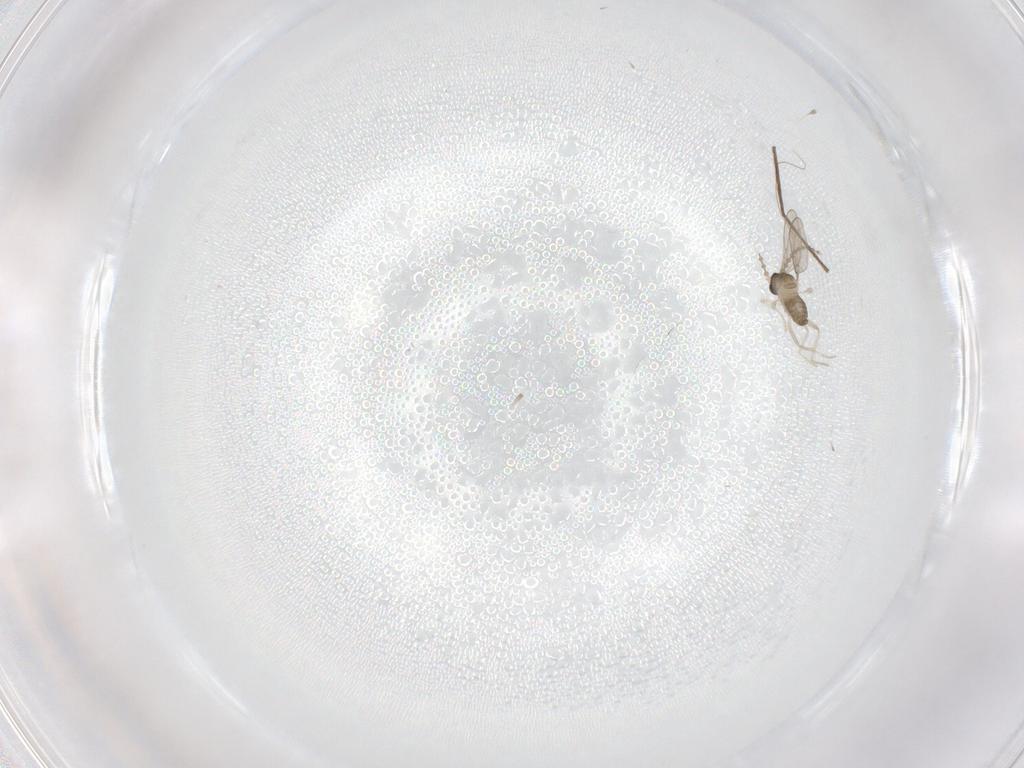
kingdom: Animalia
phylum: Arthropoda
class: Insecta
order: Diptera
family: Cecidomyiidae
